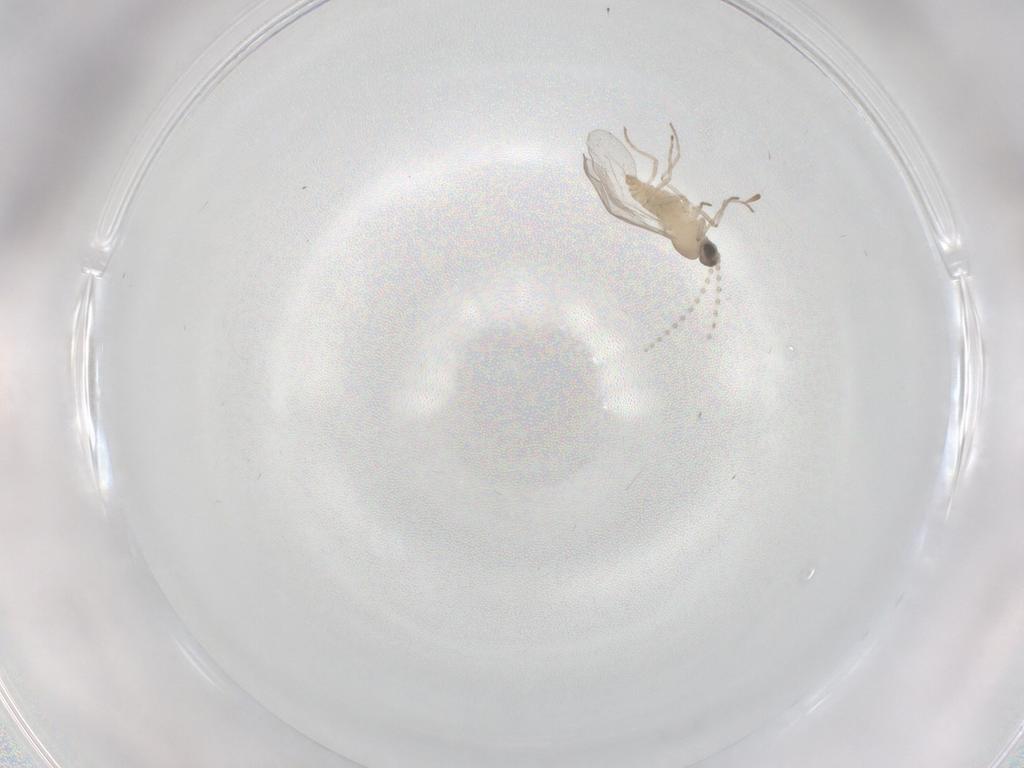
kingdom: Animalia
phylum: Arthropoda
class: Insecta
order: Diptera
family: Cecidomyiidae
